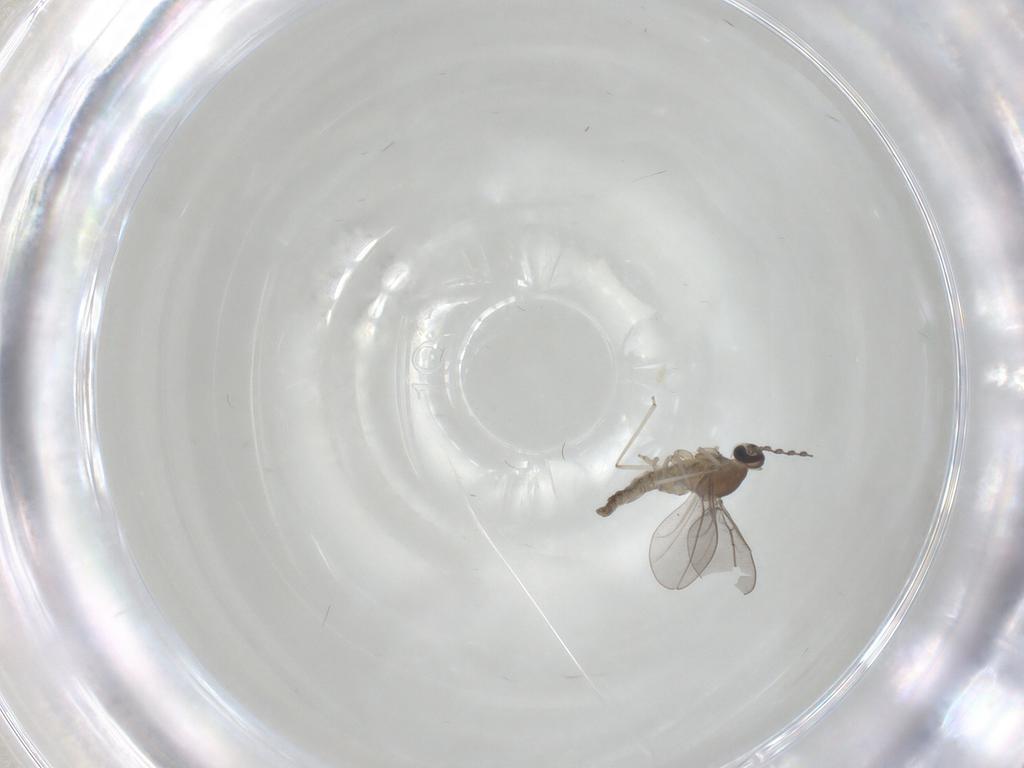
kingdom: Animalia
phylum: Arthropoda
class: Insecta
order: Diptera
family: Cecidomyiidae
